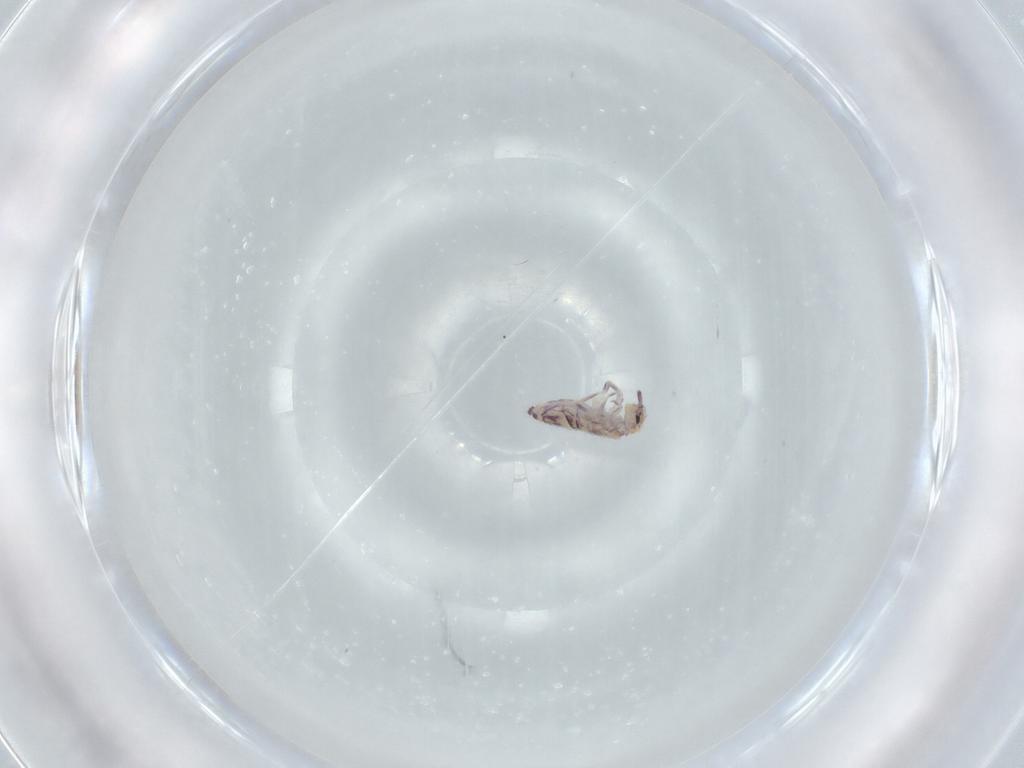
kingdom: Animalia
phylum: Arthropoda
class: Collembola
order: Entomobryomorpha
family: Entomobryidae
